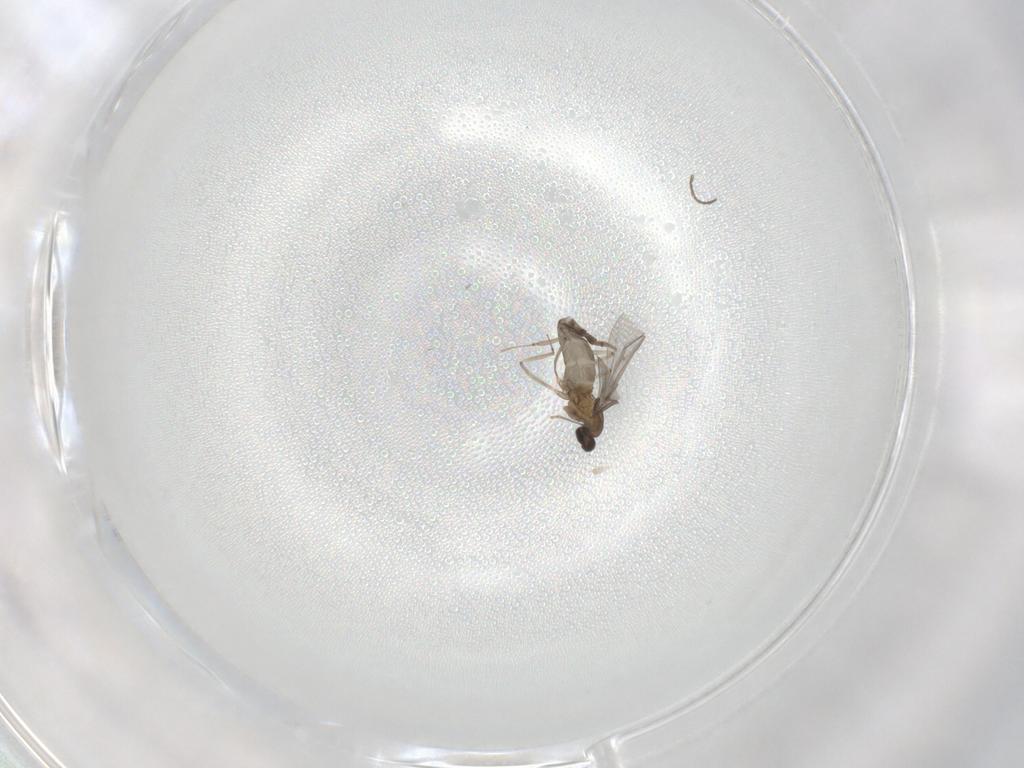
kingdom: Animalia
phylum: Arthropoda
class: Insecta
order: Diptera
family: Cecidomyiidae
